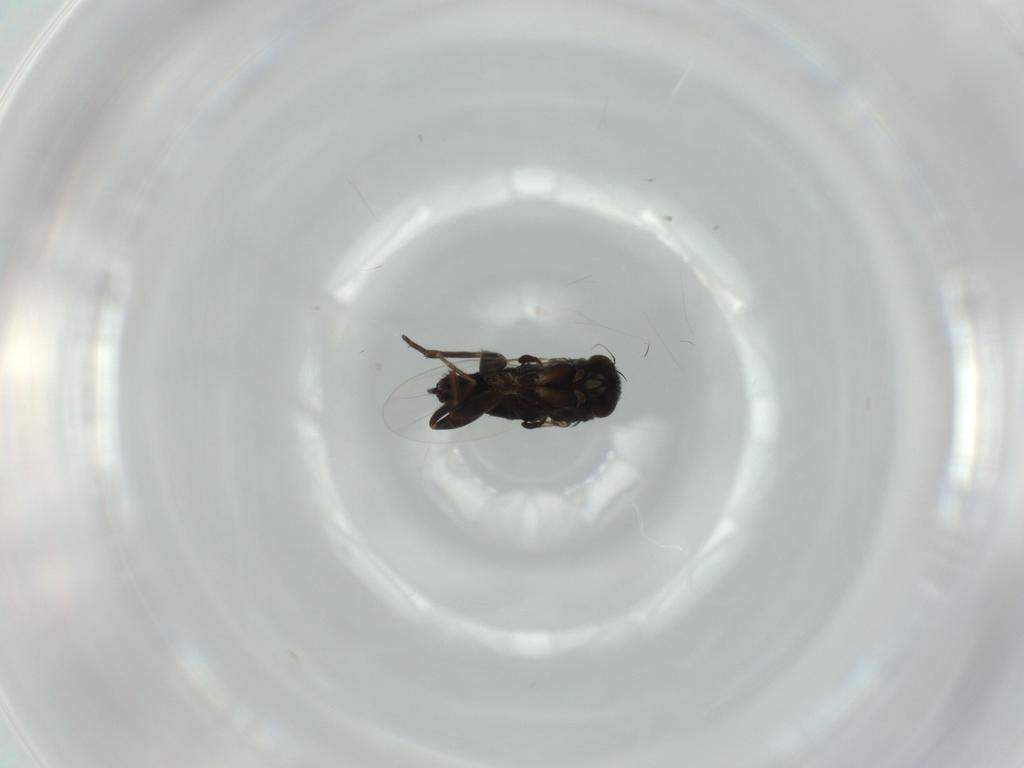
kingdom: Animalia
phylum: Arthropoda
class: Insecta
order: Diptera
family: Phoridae
